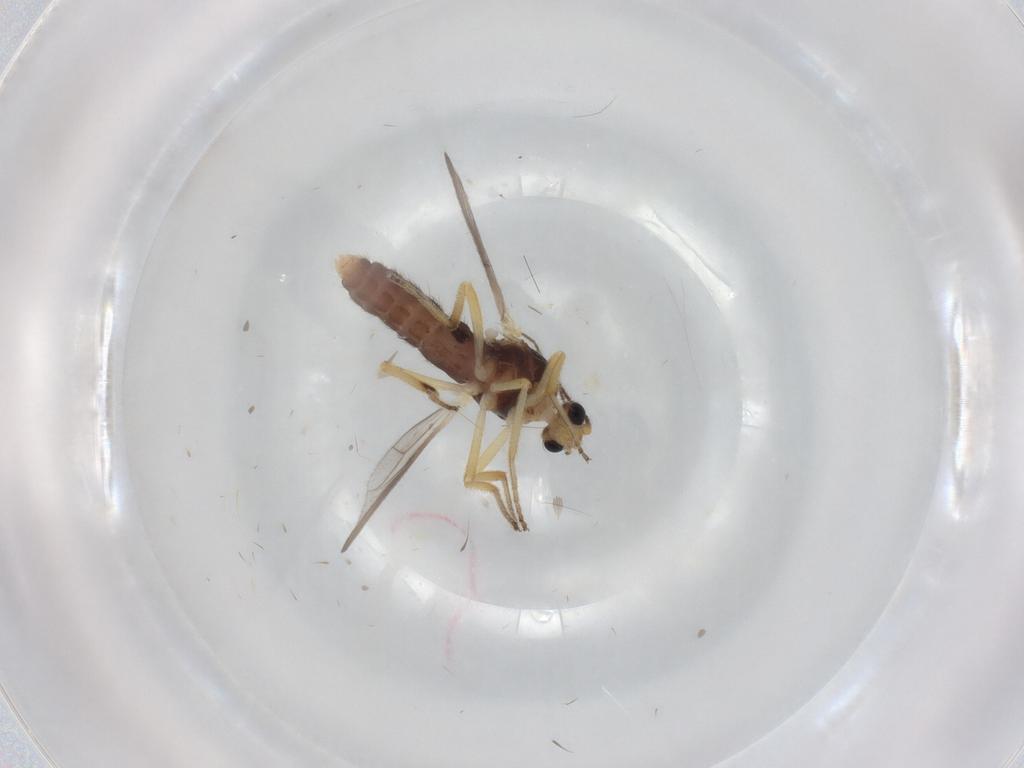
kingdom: Animalia
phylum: Arthropoda
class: Insecta
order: Diptera
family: Ceratopogonidae
